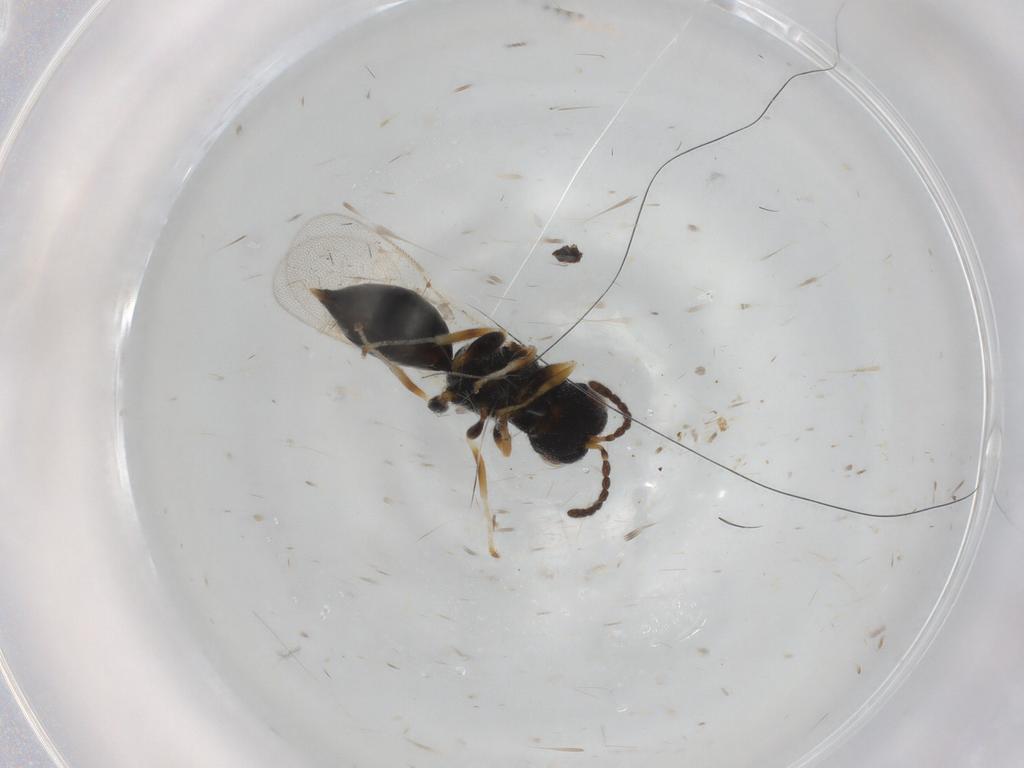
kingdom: Animalia
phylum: Arthropoda
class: Insecta
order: Hymenoptera
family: Eurytomidae
